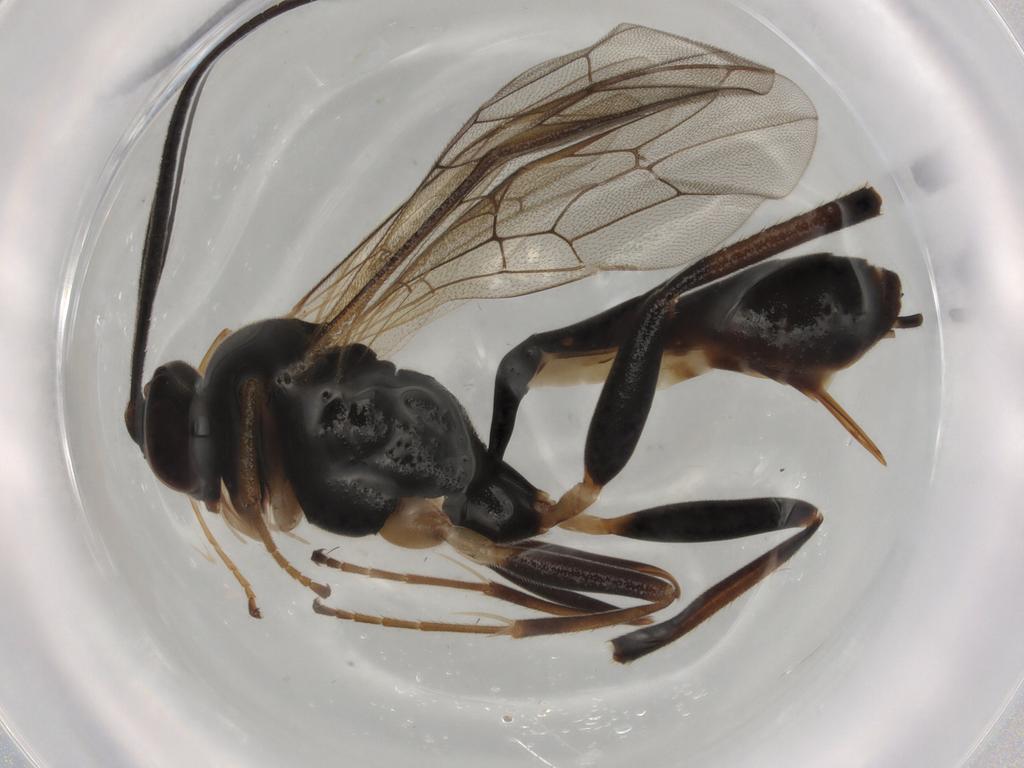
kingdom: Animalia
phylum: Arthropoda
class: Insecta
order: Hymenoptera
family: Ichneumonidae
